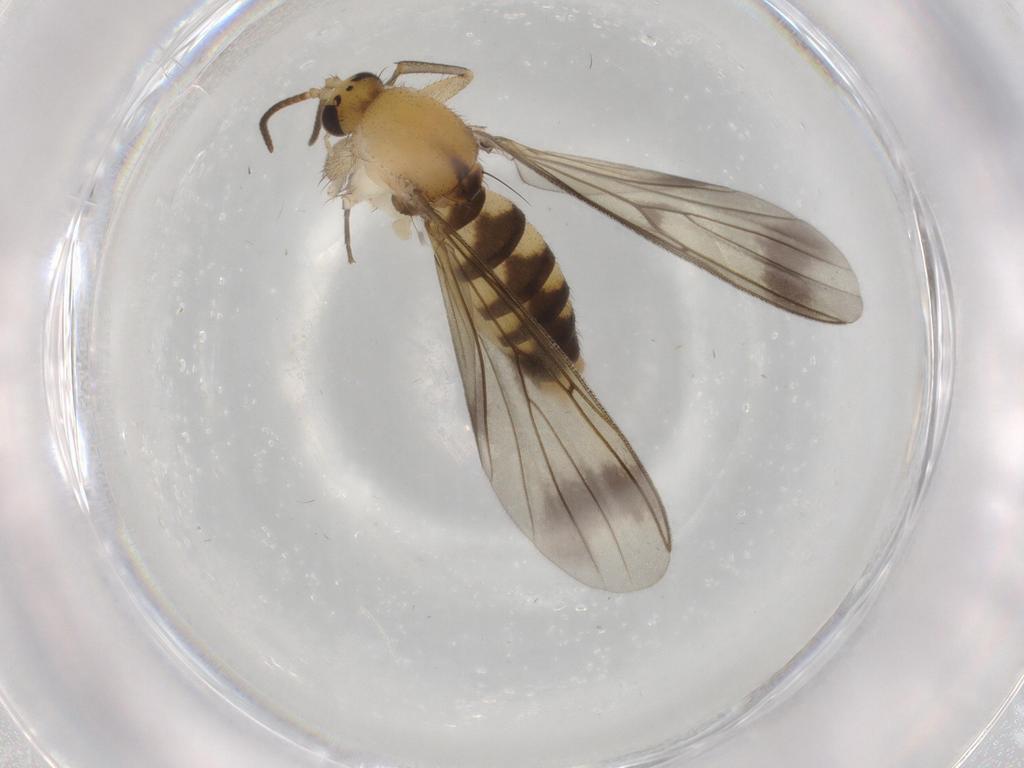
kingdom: Animalia
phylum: Arthropoda
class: Insecta
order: Diptera
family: Mycetophilidae
